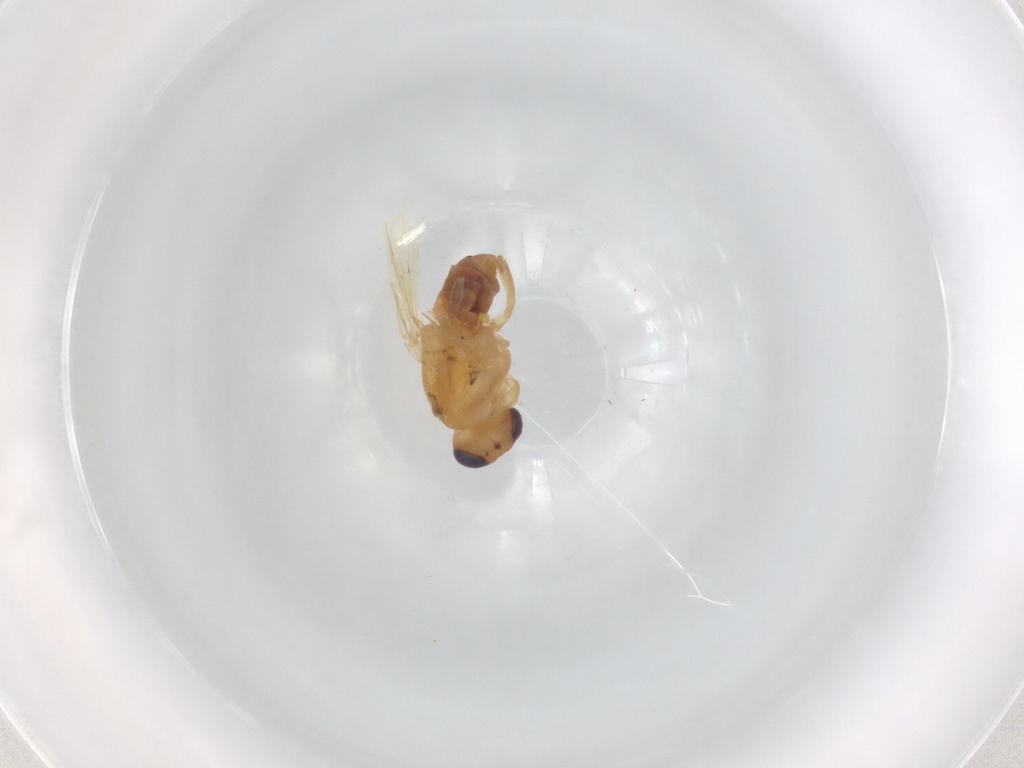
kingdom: Animalia
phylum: Arthropoda
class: Insecta
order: Diptera
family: Chyromyidae
